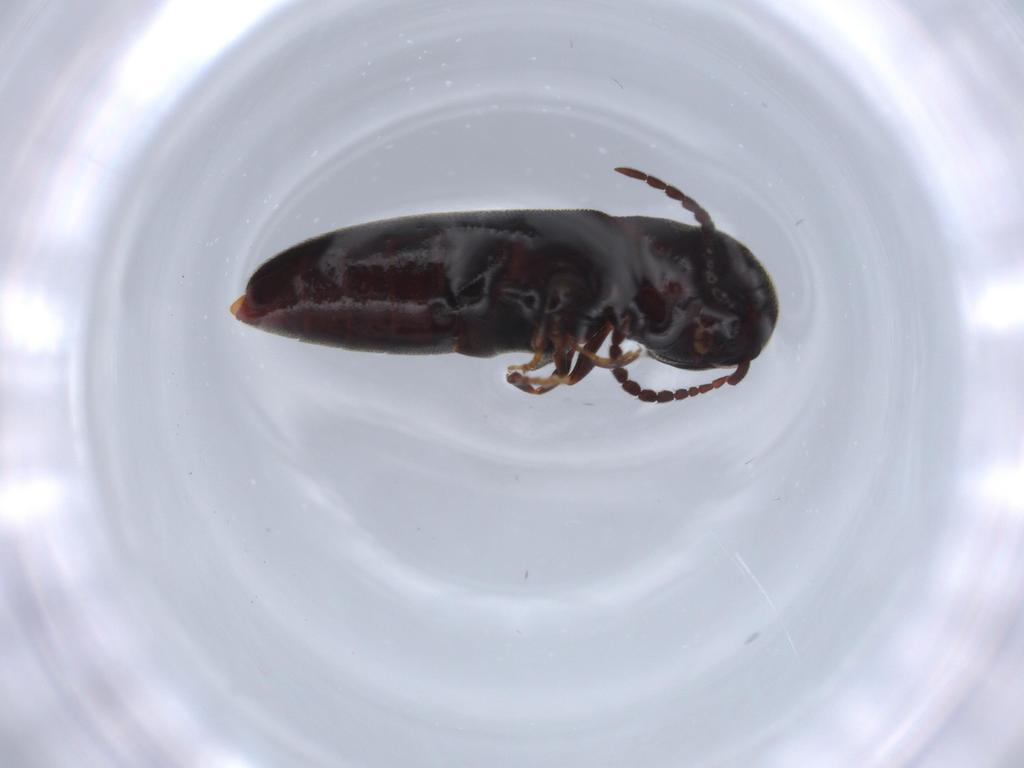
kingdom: Animalia
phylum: Arthropoda
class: Insecta
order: Coleoptera
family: Eucnemidae
